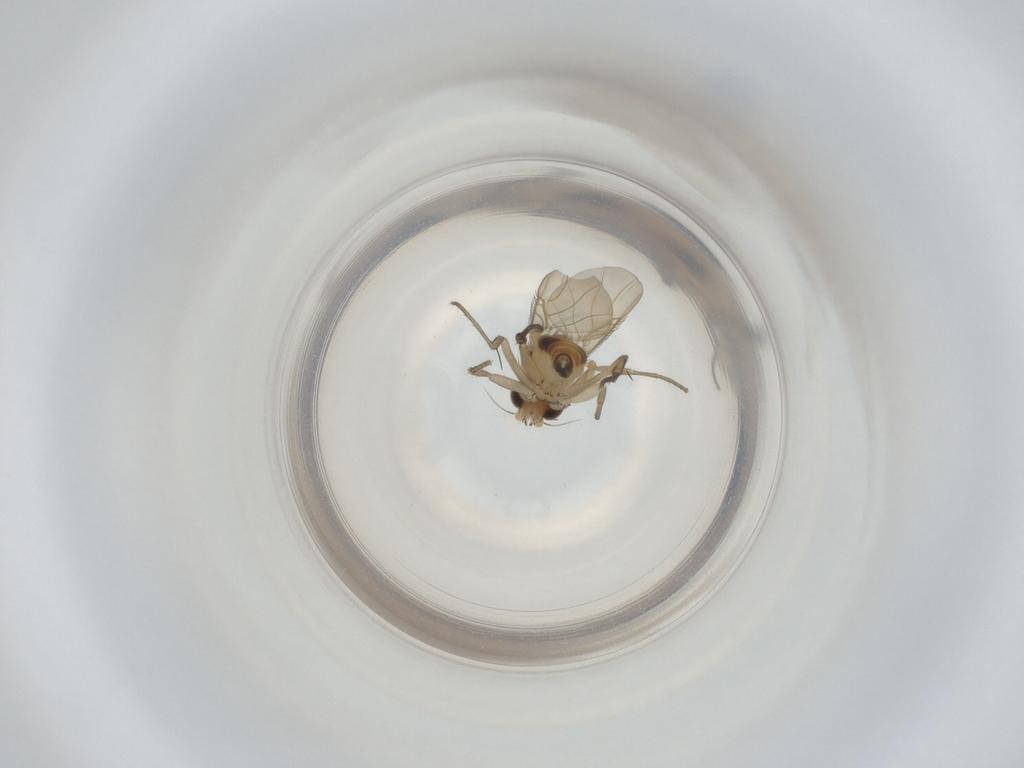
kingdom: Animalia
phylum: Arthropoda
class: Insecta
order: Diptera
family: Phoridae
